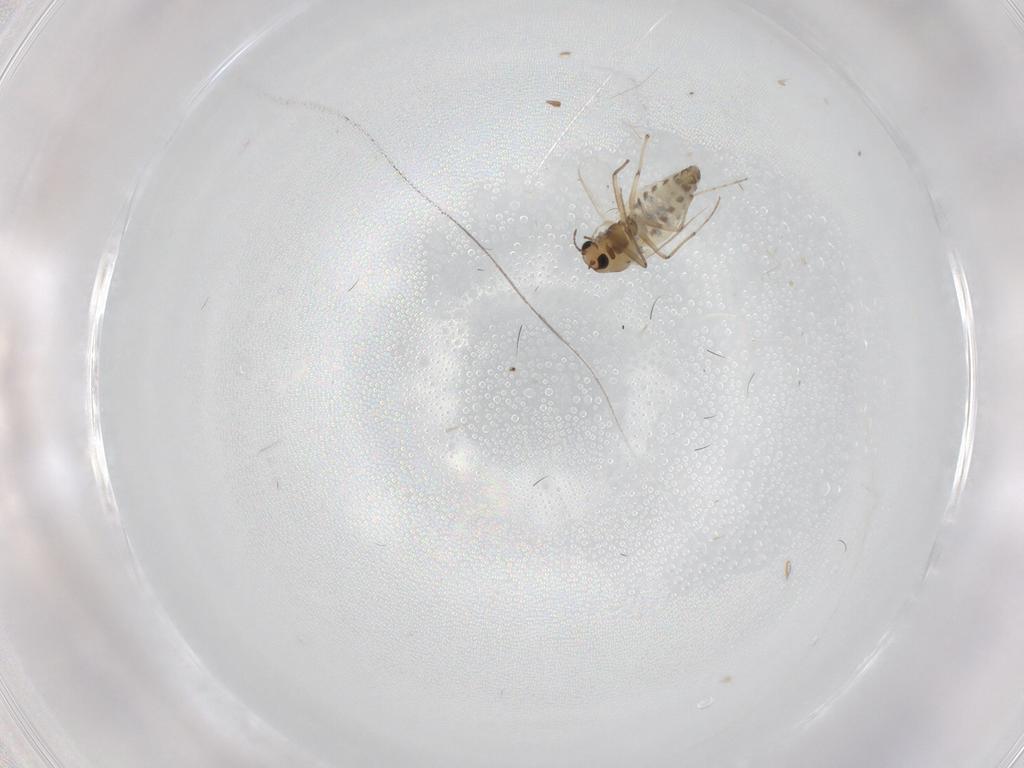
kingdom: Animalia
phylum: Arthropoda
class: Insecta
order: Diptera
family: Chironomidae
